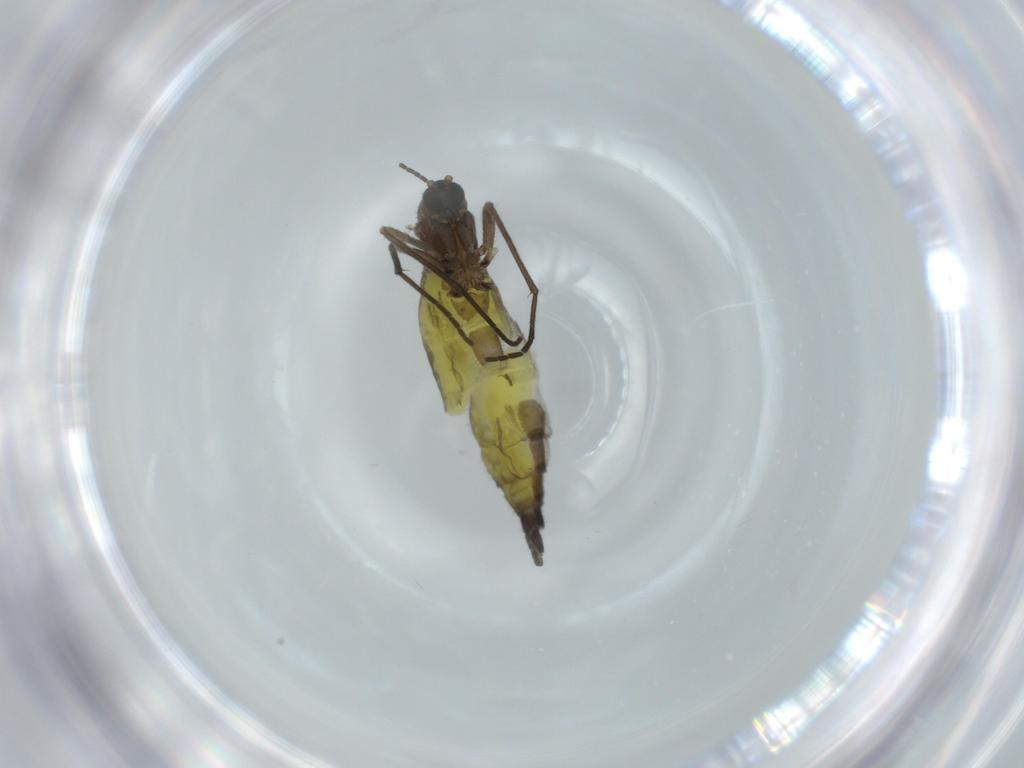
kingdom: Animalia
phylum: Arthropoda
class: Insecta
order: Diptera
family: Sciaridae
